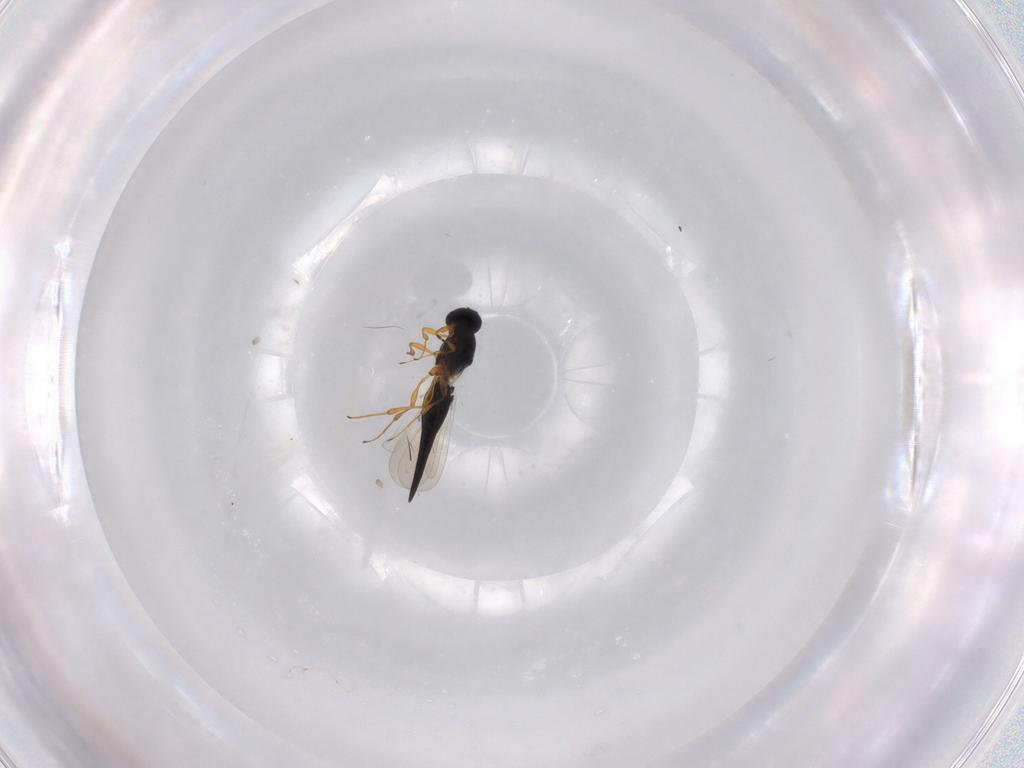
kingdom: Animalia
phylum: Arthropoda
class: Insecta
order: Hymenoptera
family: Platygastridae
